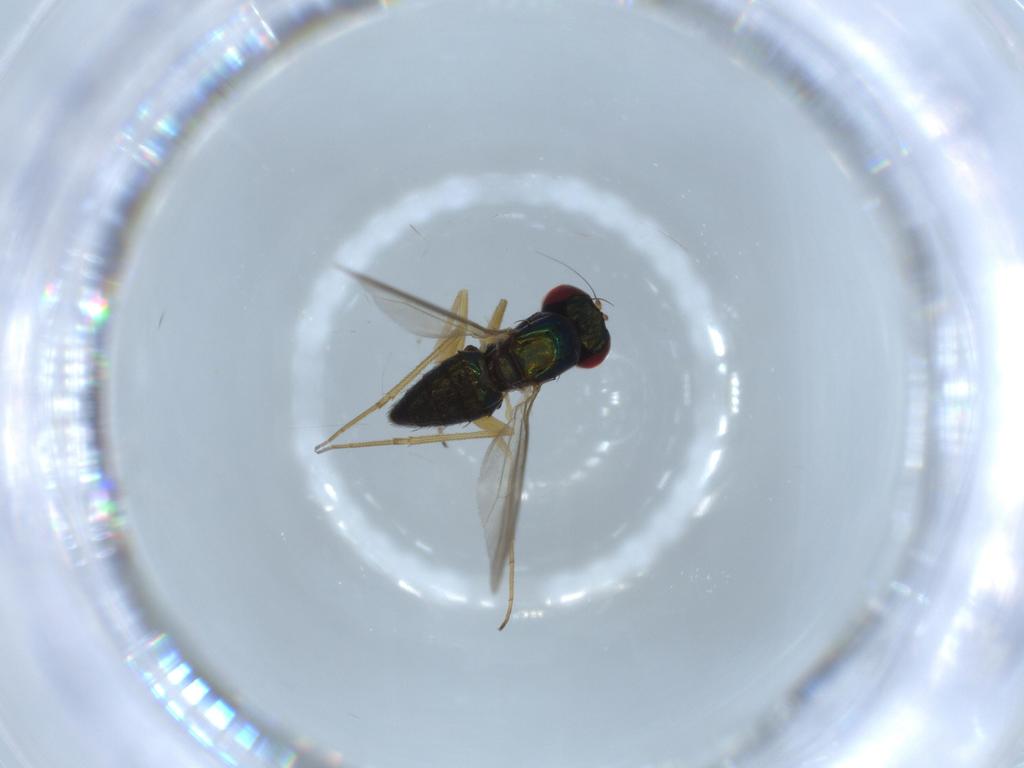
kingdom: Animalia
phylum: Arthropoda
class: Insecta
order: Diptera
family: Dolichopodidae
